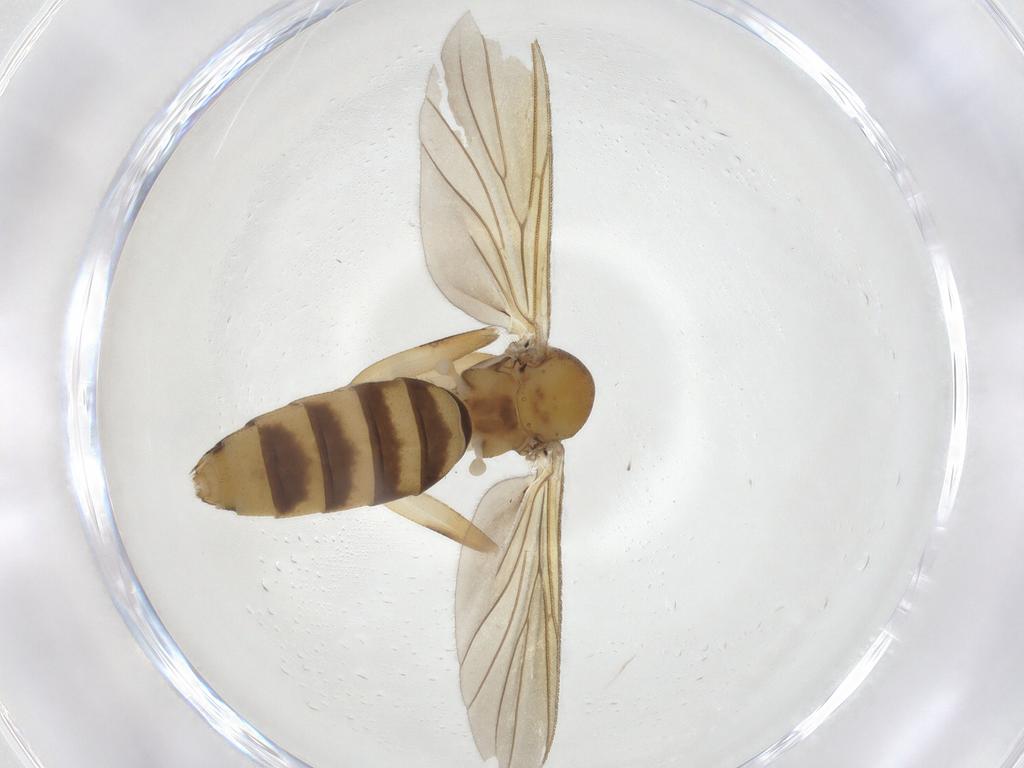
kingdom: Animalia
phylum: Arthropoda
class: Insecta
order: Diptera
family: Mycetophilidae
